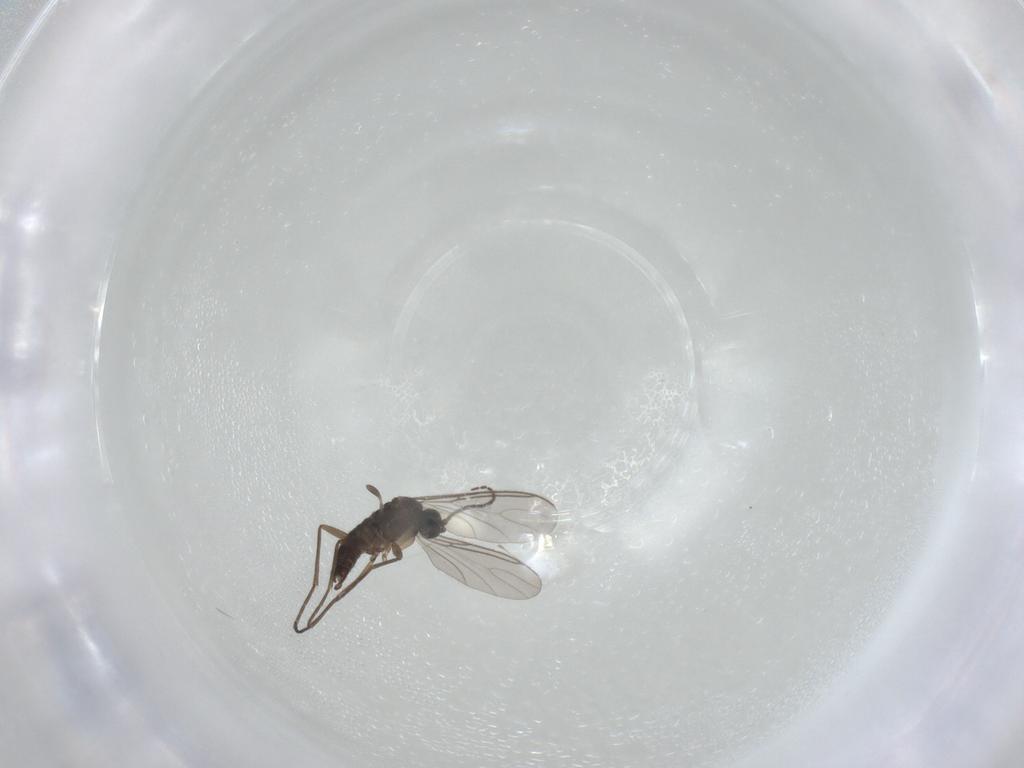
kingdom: Animalia
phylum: Arthropoda
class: Insecta
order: Diptera
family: Sciaridae
